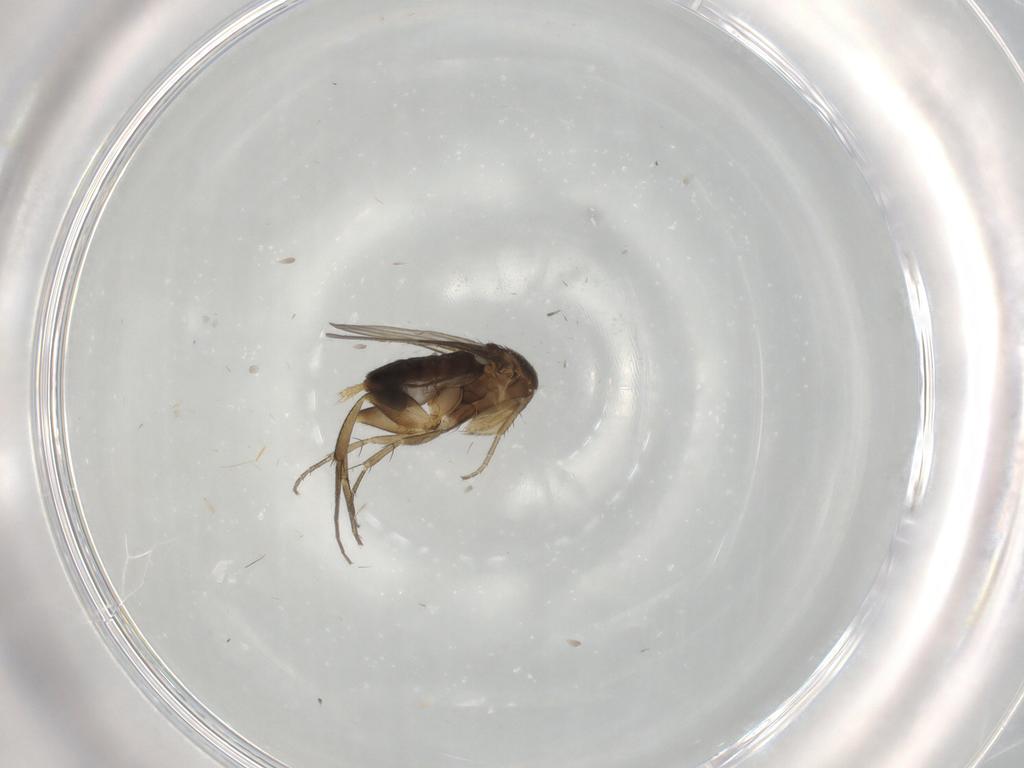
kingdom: Animalia
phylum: Arthropoda
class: Insecta
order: Diptera
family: Phoridae
